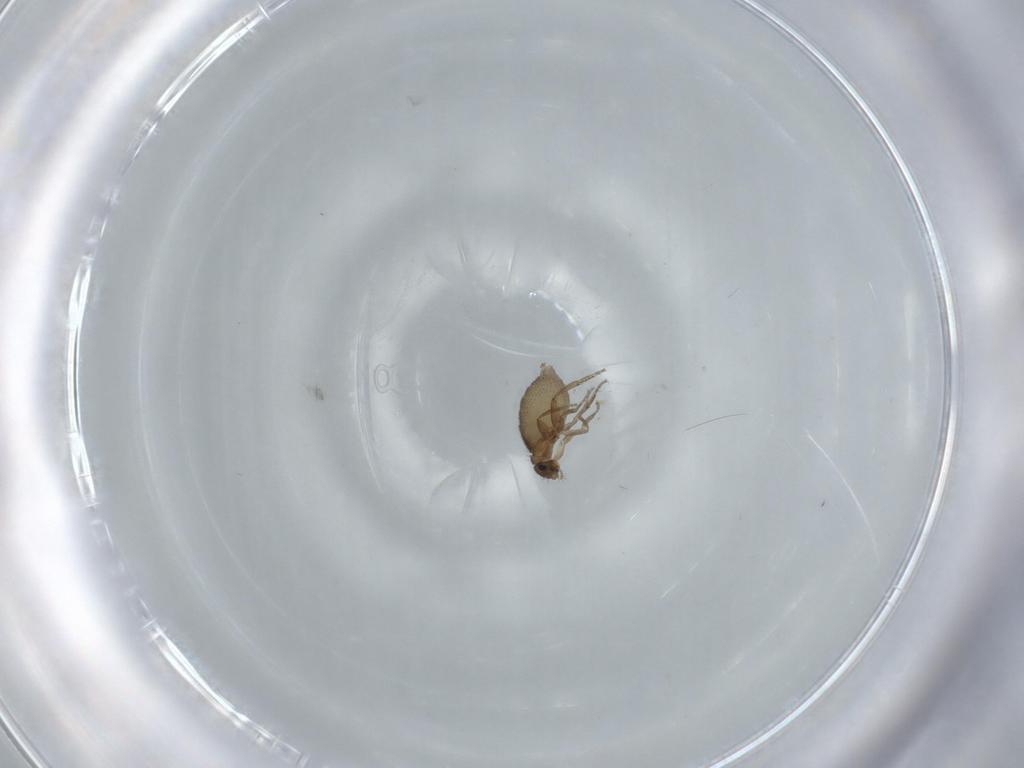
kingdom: Animalia
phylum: Arthropoda
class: Insecta
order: Diptera
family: Phoridae
